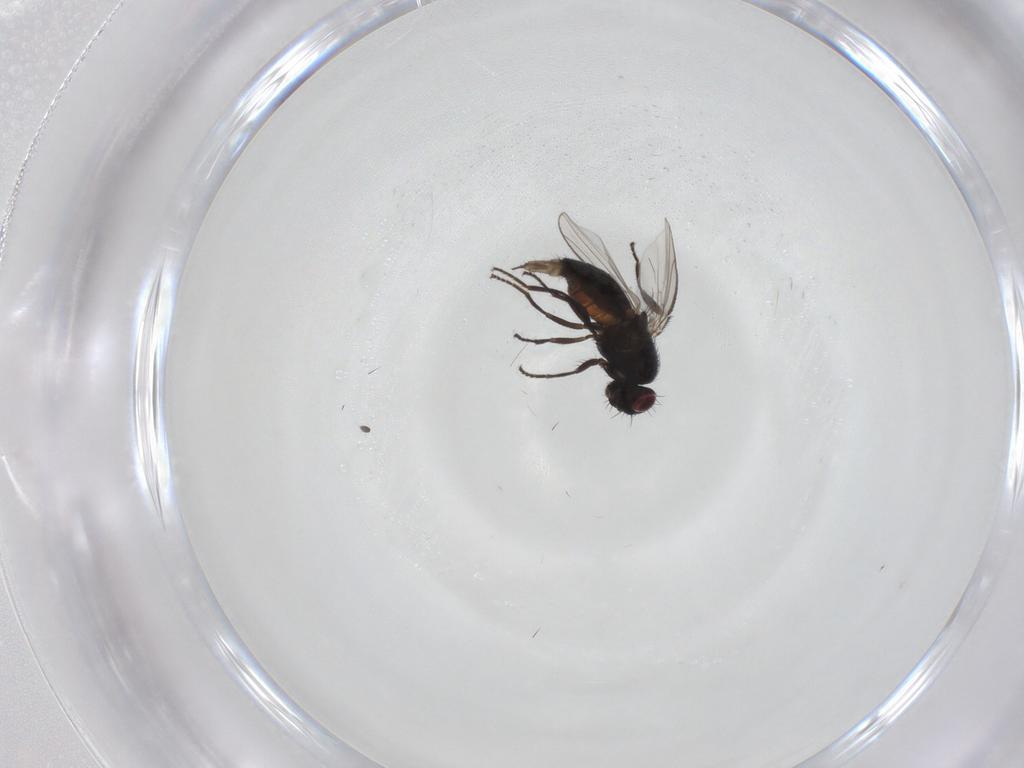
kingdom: Animalia
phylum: Arthropoda
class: Insecta
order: Diptera
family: Carnidae
